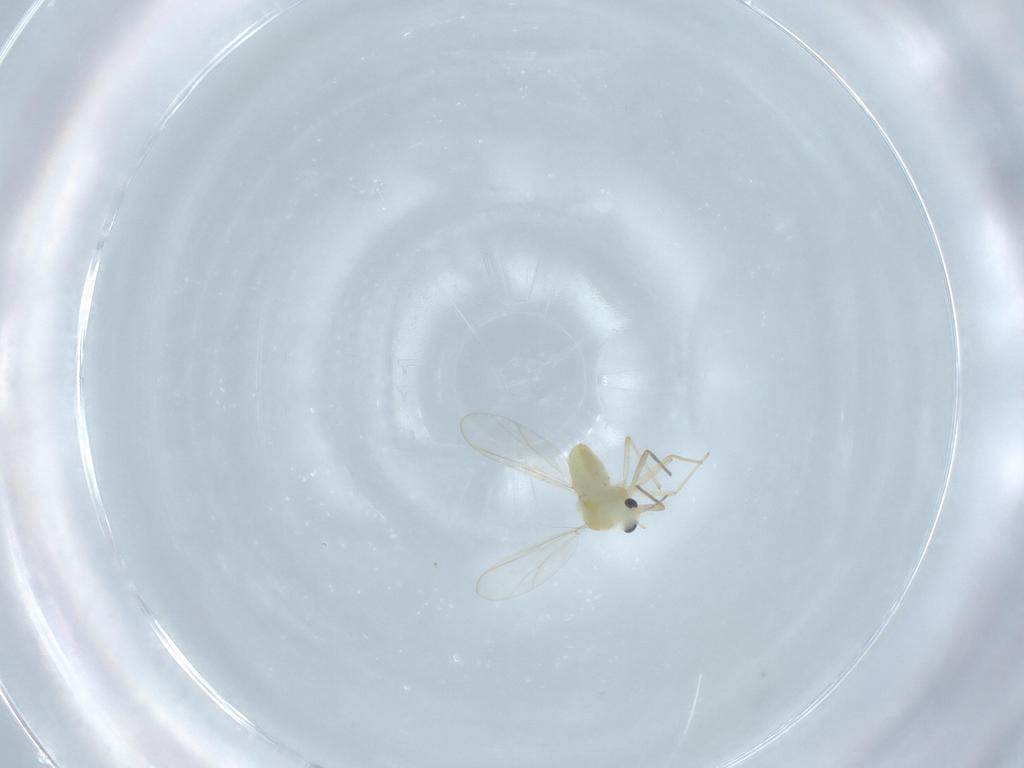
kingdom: Animalia
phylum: Arthropoda
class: Insecta
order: Diptera
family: Chironomidae
